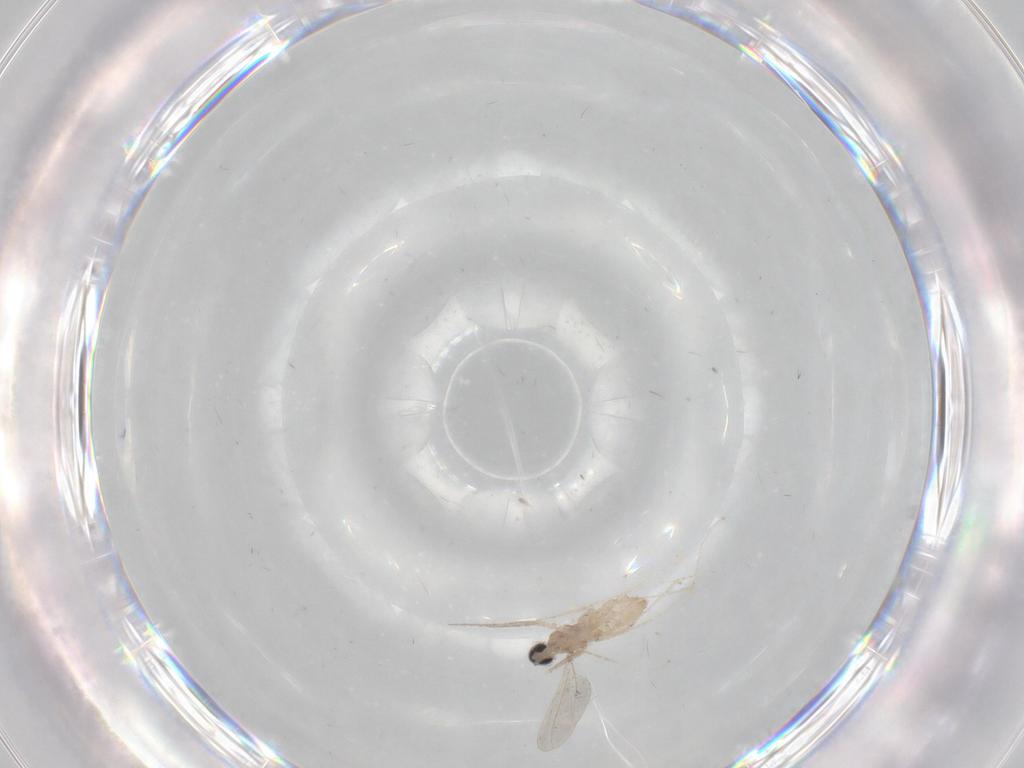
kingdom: Animalia
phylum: Arthropoda
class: Insecta
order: Diptera
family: Cecidomyiidae
